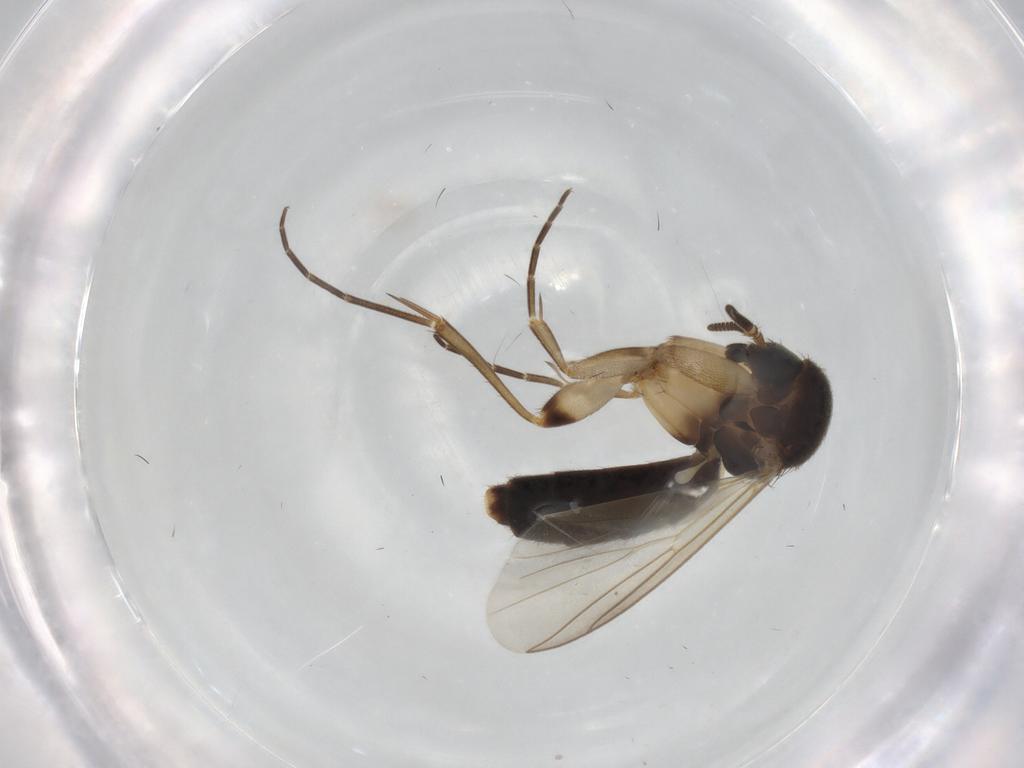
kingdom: Animalia
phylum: Arthropoda
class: Insecta
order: Diptera
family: Mycetophilidae
